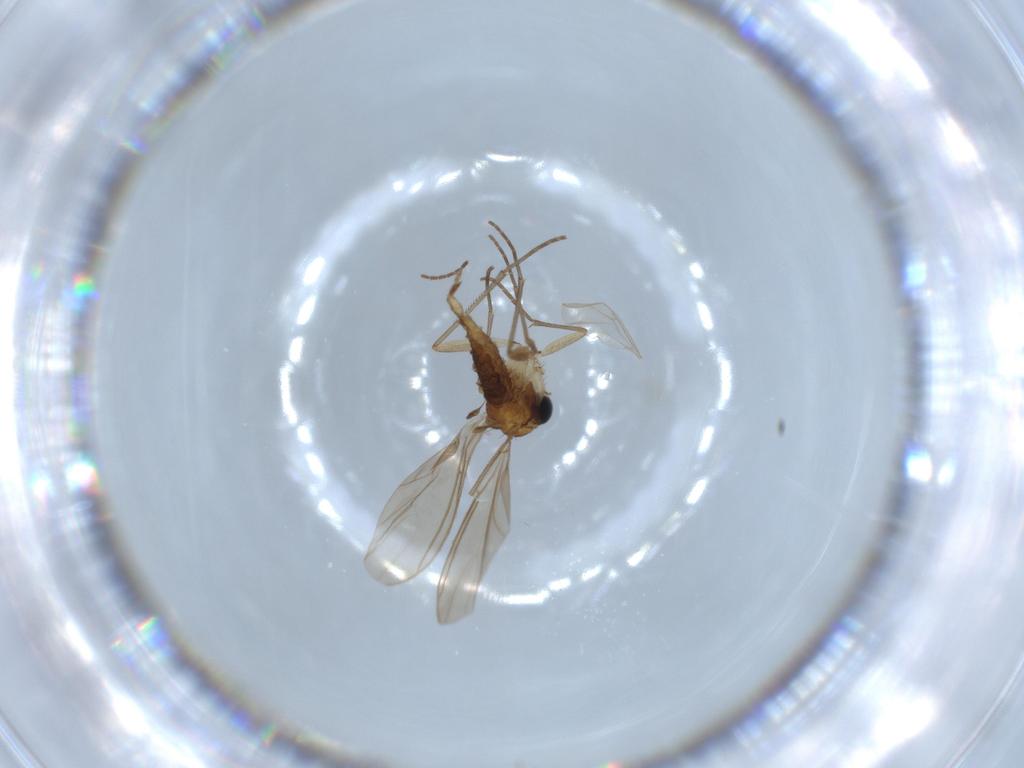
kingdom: Animalia
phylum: Arthropoda
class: Insecta
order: Diptera
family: Sciaridae
